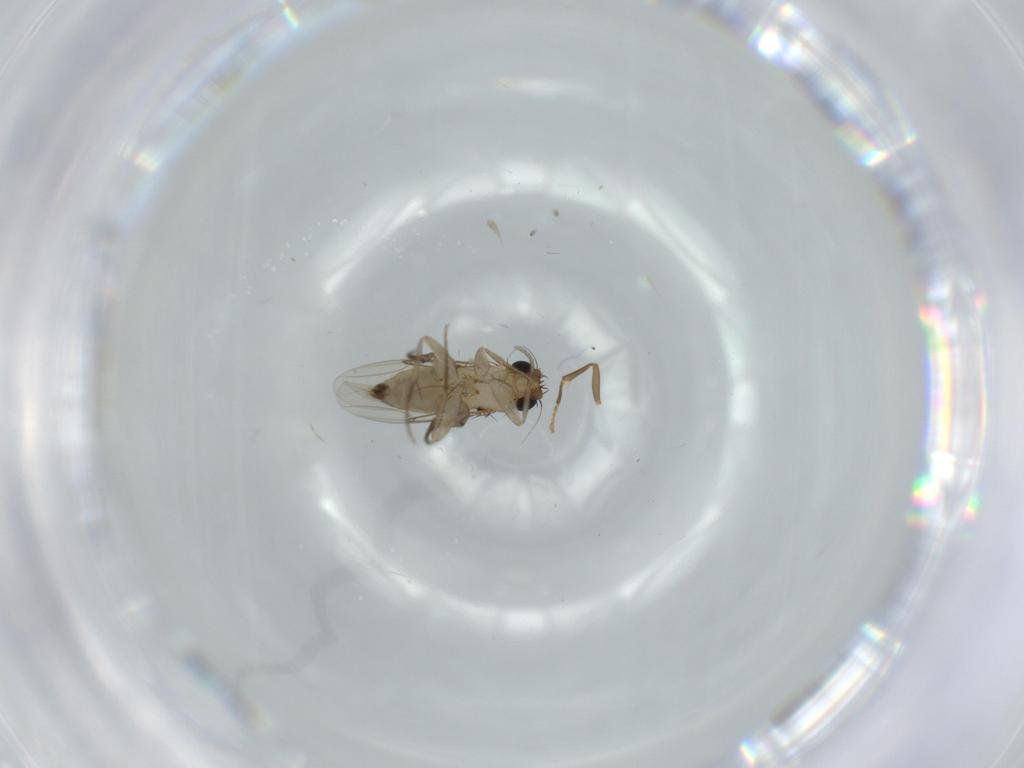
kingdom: Animalia
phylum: Arthropoda
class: Insecta
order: Diptera
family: Phoridae
